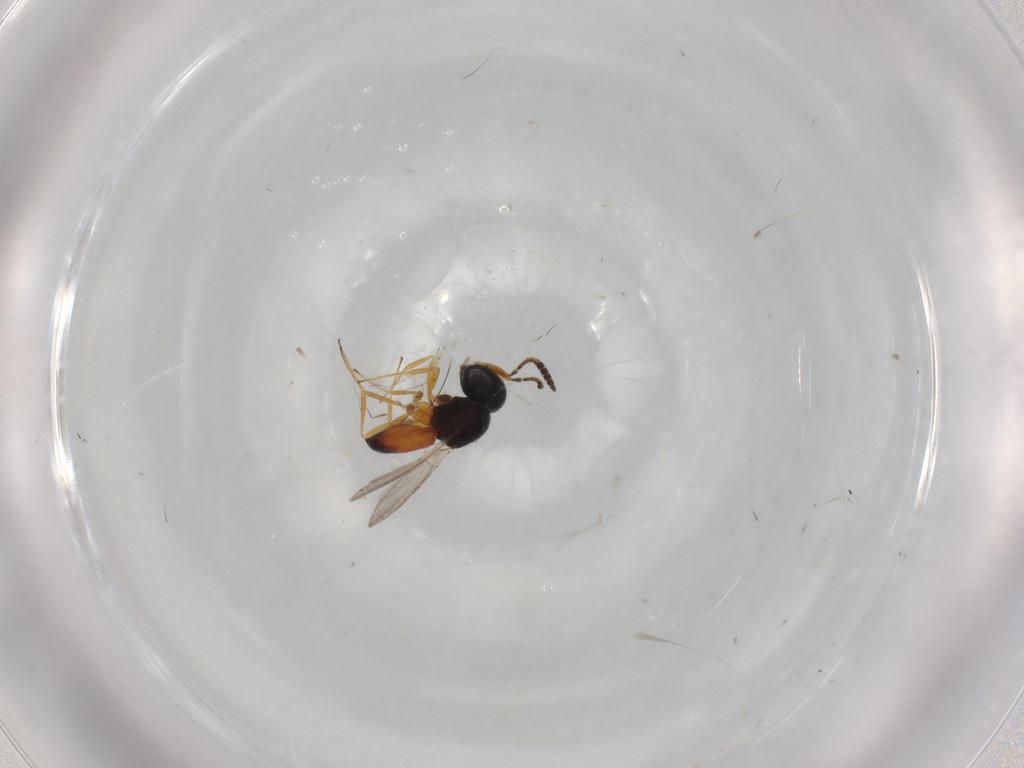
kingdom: Animalia
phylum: Arthropoda
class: Insecta
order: Hymenoptera
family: Scelionidae
